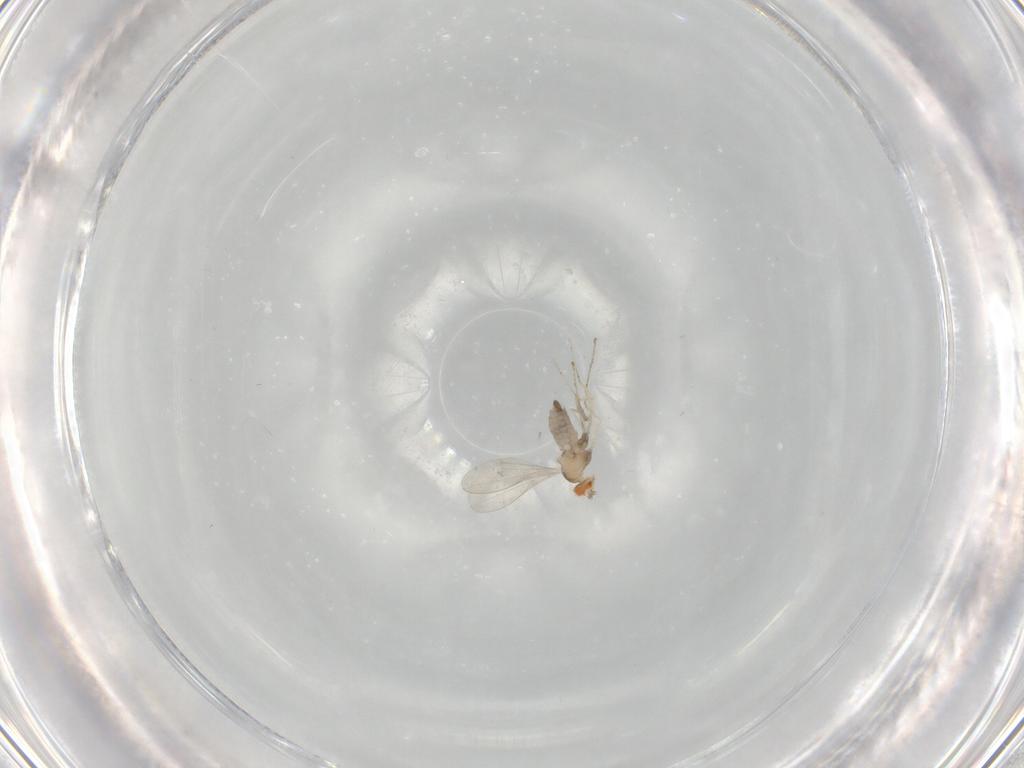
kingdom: Animalia
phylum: Arthropoda
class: Insecta
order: Diptera
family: Cecidomyiidae
